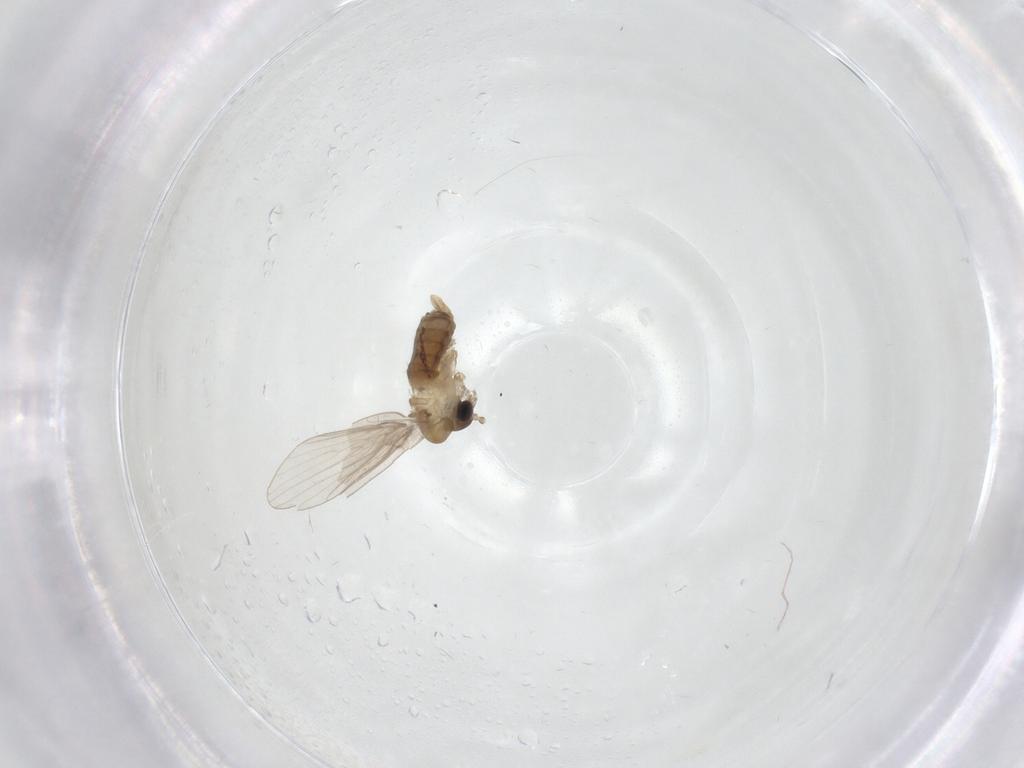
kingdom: Animalia
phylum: Arthropoda
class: Insecta
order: Diptera
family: Psychodidae
